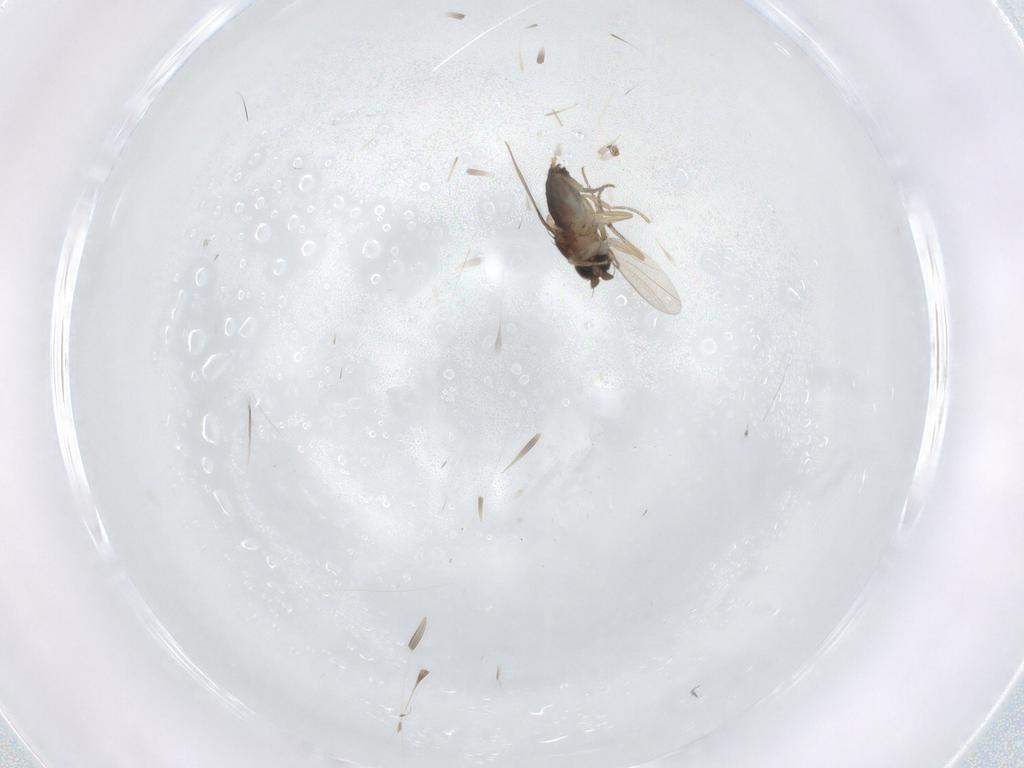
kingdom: Animalia
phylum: Arthropoda
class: Insecta
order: Diptera
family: Phoridae
